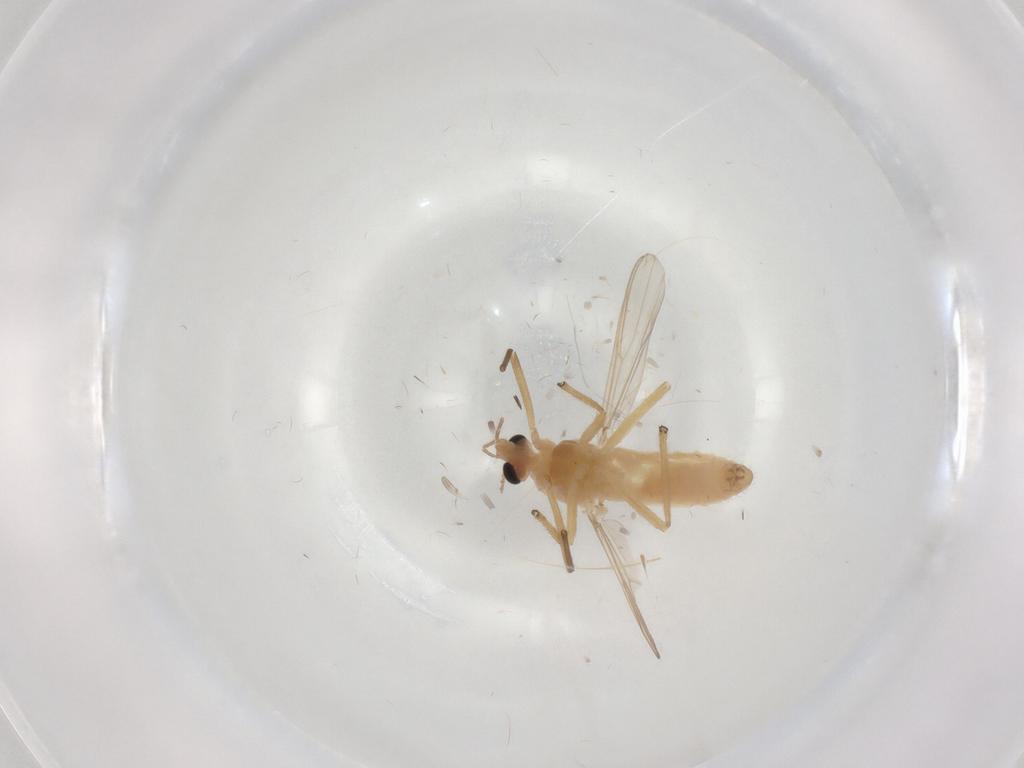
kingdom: Animalia
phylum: Arthropoda
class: Insecta
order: Diptera
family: Chironomidae
